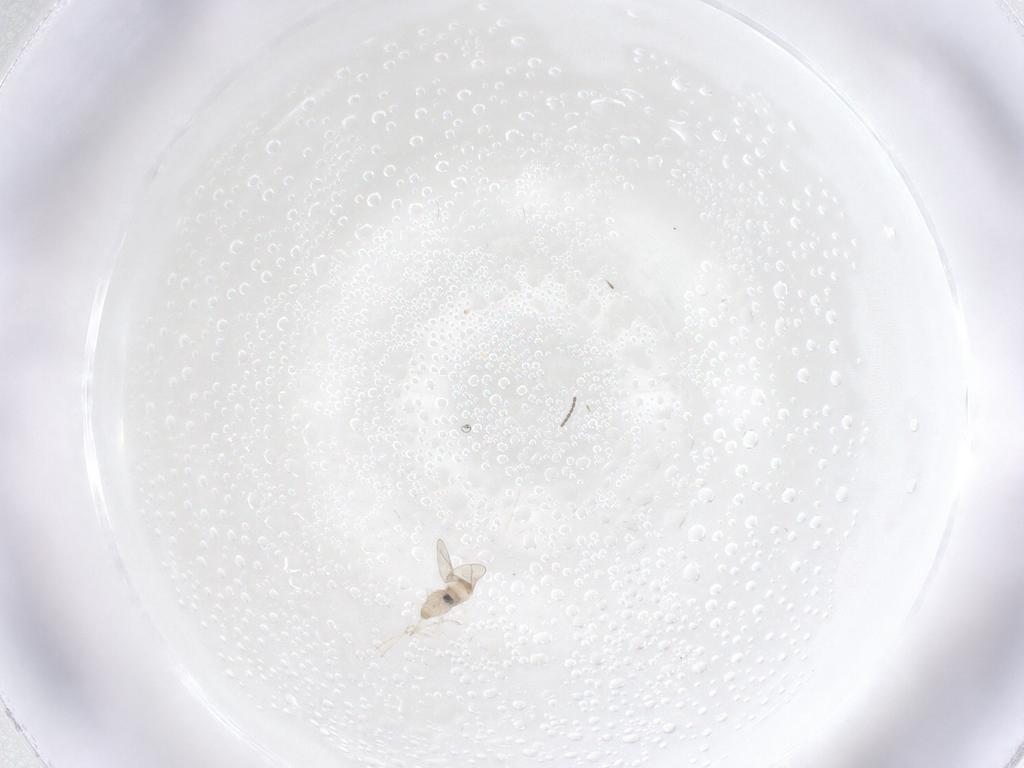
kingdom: Animalia
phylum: Arthropoda
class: Insecta
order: Diptera
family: Cecidomyiidae
